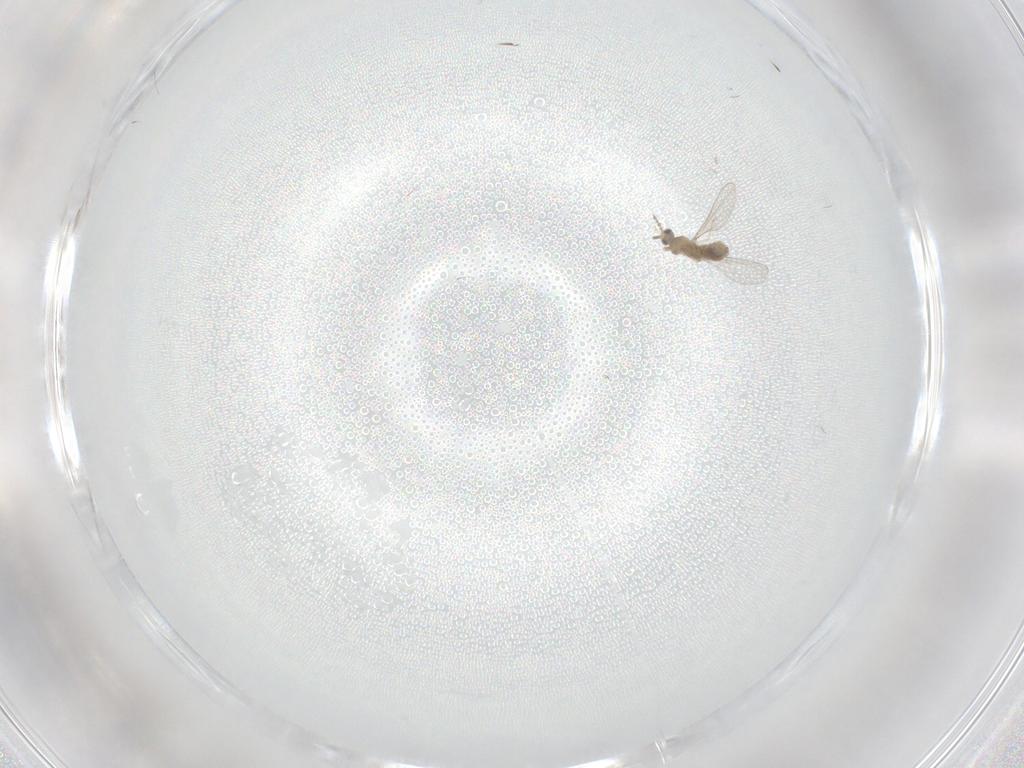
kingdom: Animalia
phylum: Arthropoda
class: Insecta
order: Diptera
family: Cecidomyiidae
